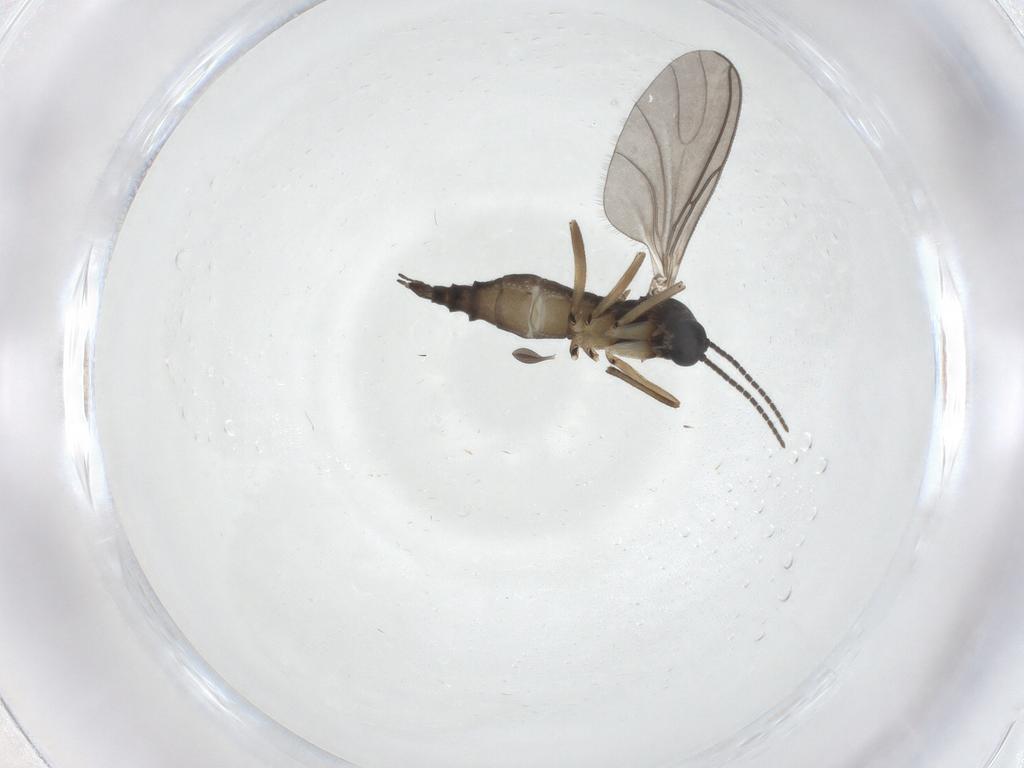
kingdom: Animalia
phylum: Arthropoda
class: Insecta
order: Diptera
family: Sciaridae
